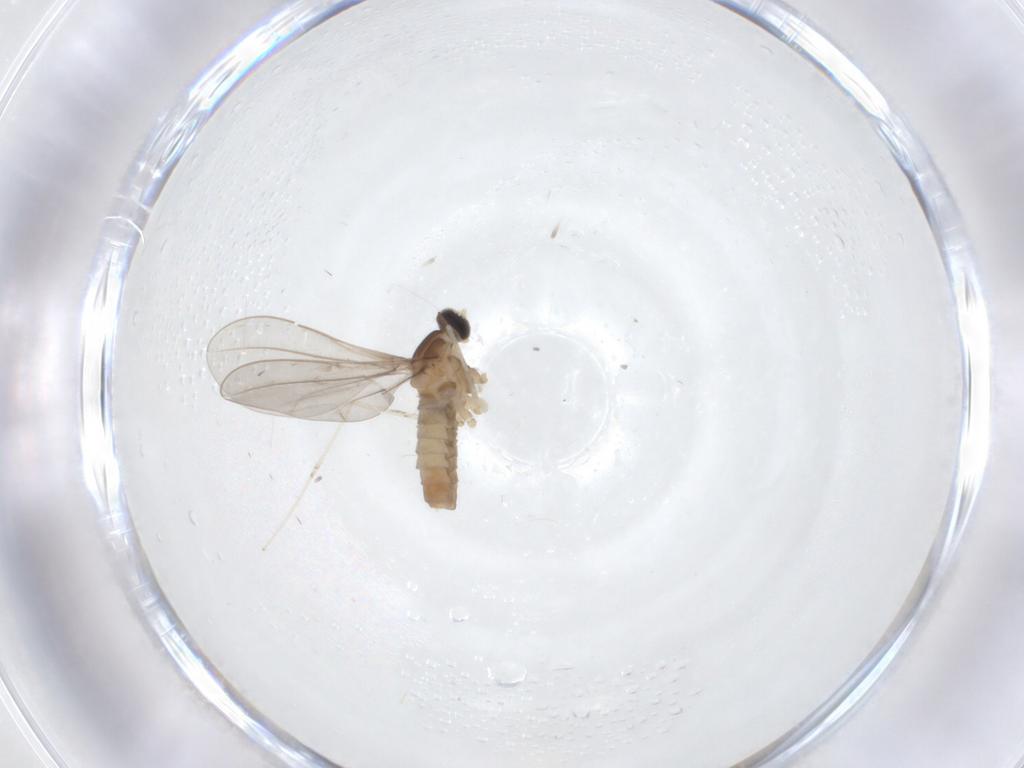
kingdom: Animalia
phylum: Arthropoda
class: Insecta
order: Diptera
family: Cecidomyiidae
